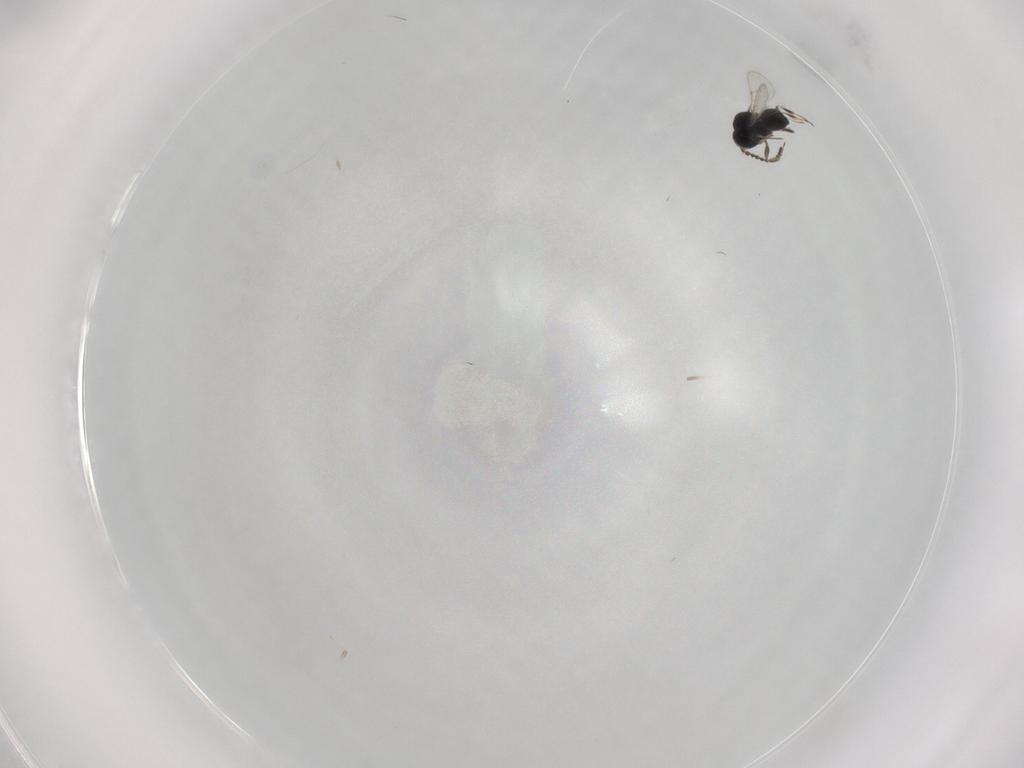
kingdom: Animalia
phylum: Arthropoda
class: Insecta
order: Hymenoptera
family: Scelionidae
